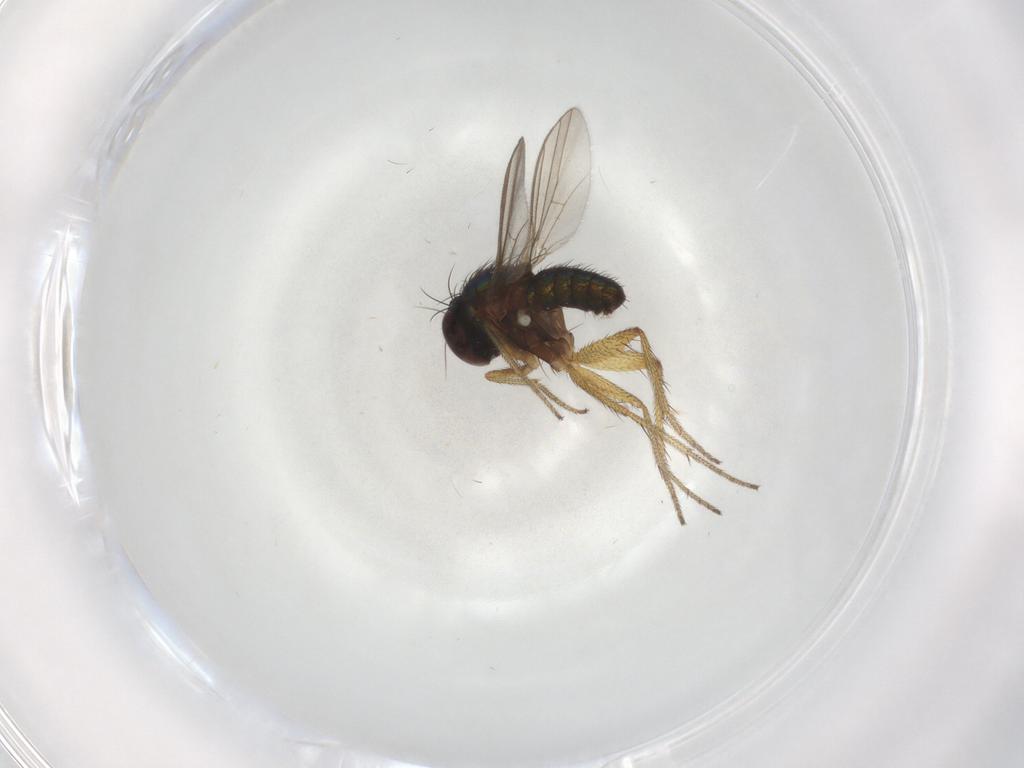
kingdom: Animalia
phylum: Arthropoda
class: Insecta
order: Diptera
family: Dolichopodidae
